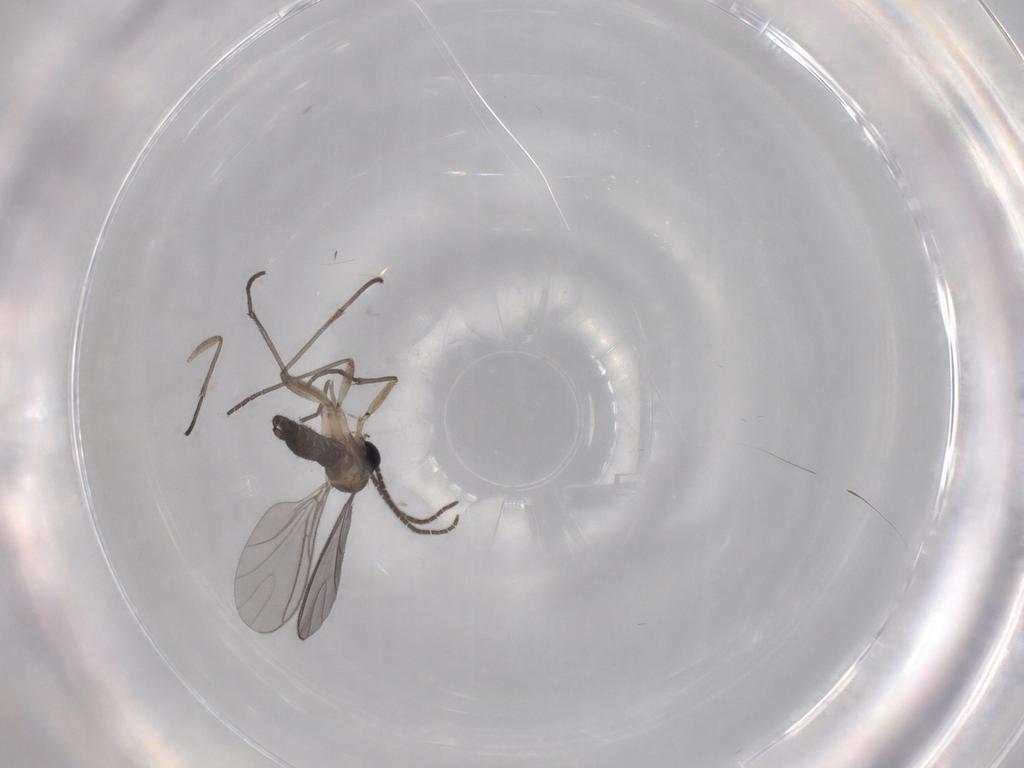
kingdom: Animalia
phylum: Arthropoda
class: Insecta
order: Diptera
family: Sciaridae
